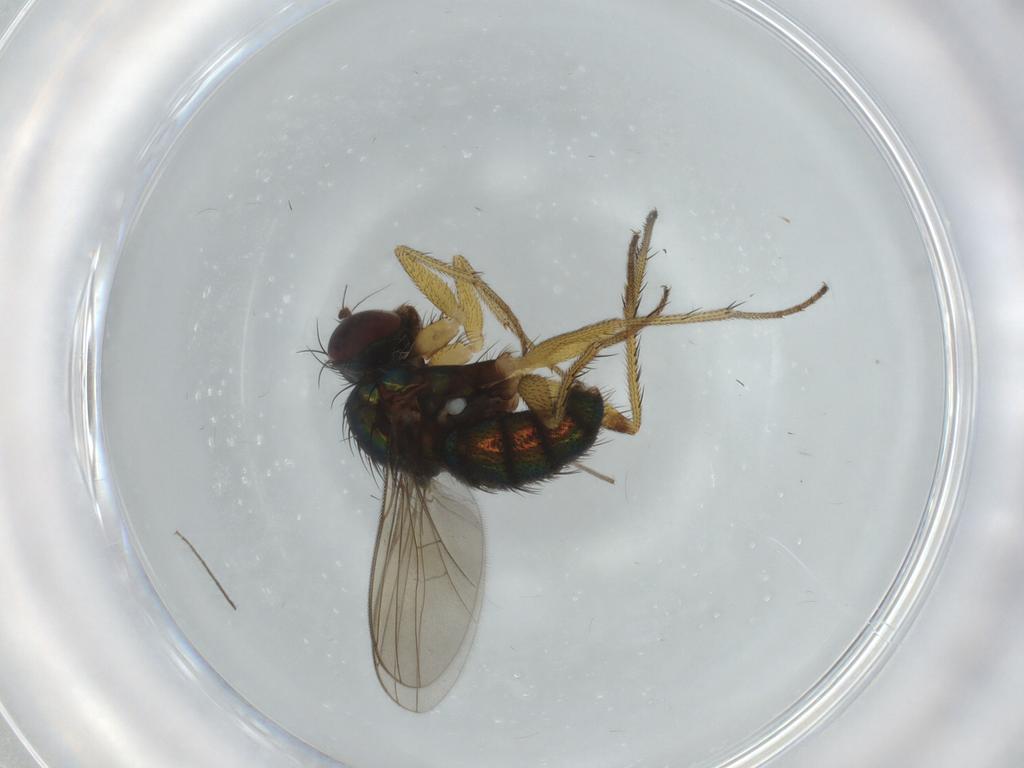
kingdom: Animalia
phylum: Arthropoda
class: Insecta
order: Diptera
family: Dolichopodidae
